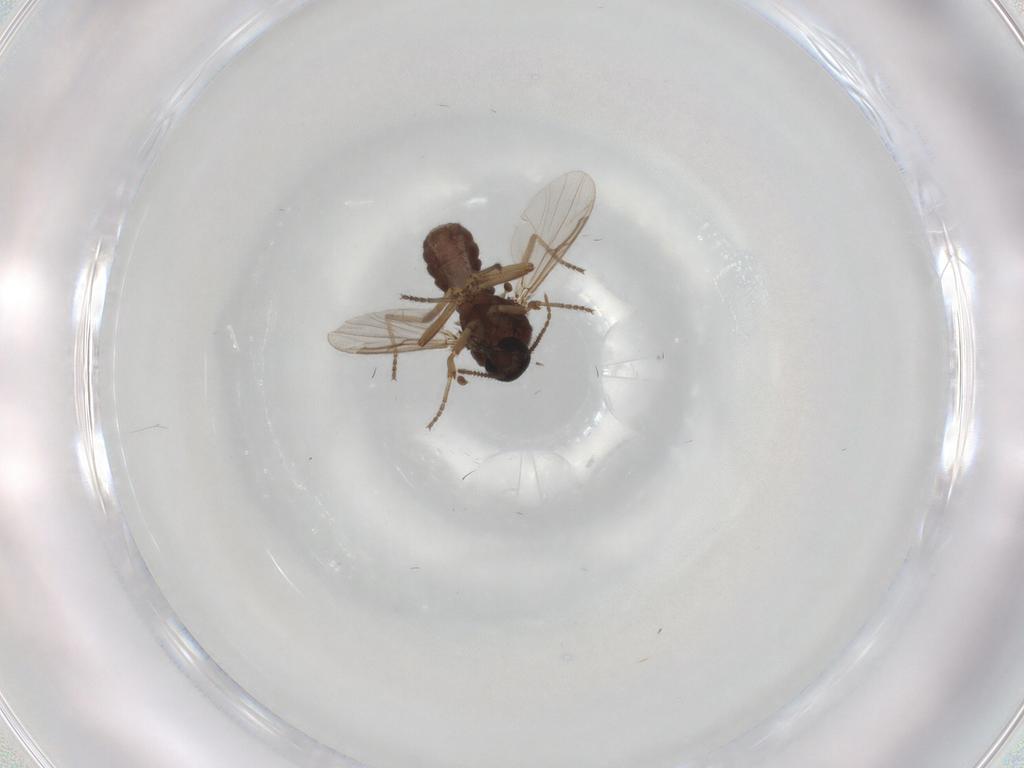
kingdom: Animalia
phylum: Arthropoda
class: Insecta
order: Diptera
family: Ceratopogonidae
